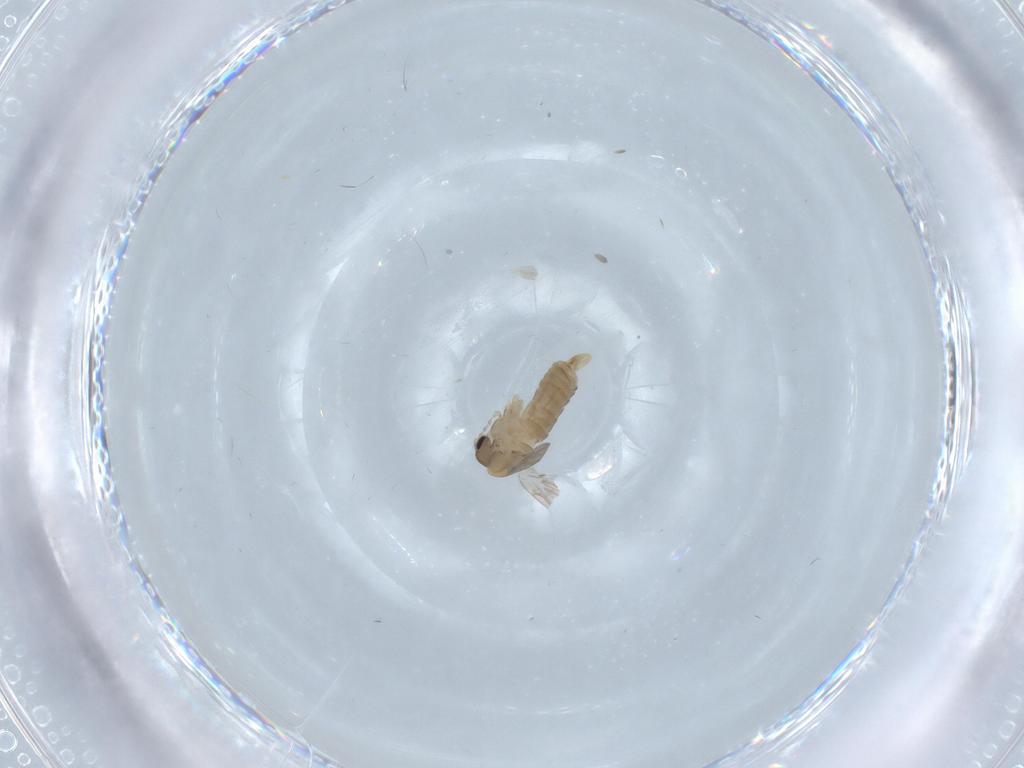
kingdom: Animalia
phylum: Arthropoda
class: Insecta
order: Diptera
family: Psychodidae
